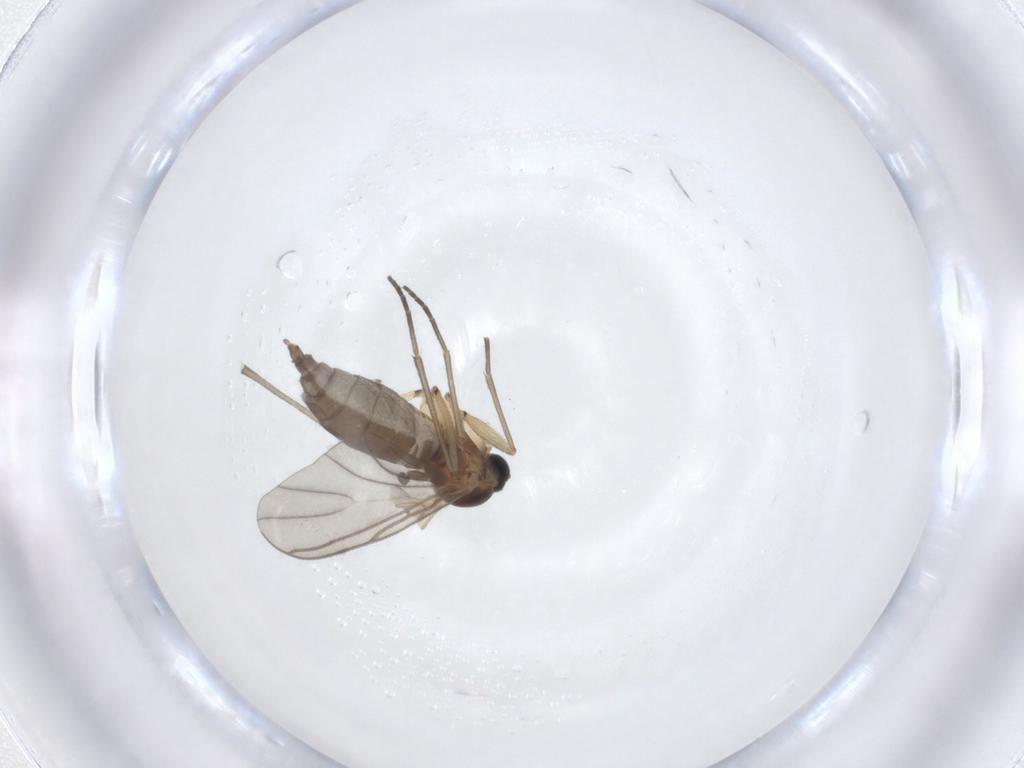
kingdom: Animalia
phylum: Arthropoda
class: Insecta
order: Diptera
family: Sciaridae
